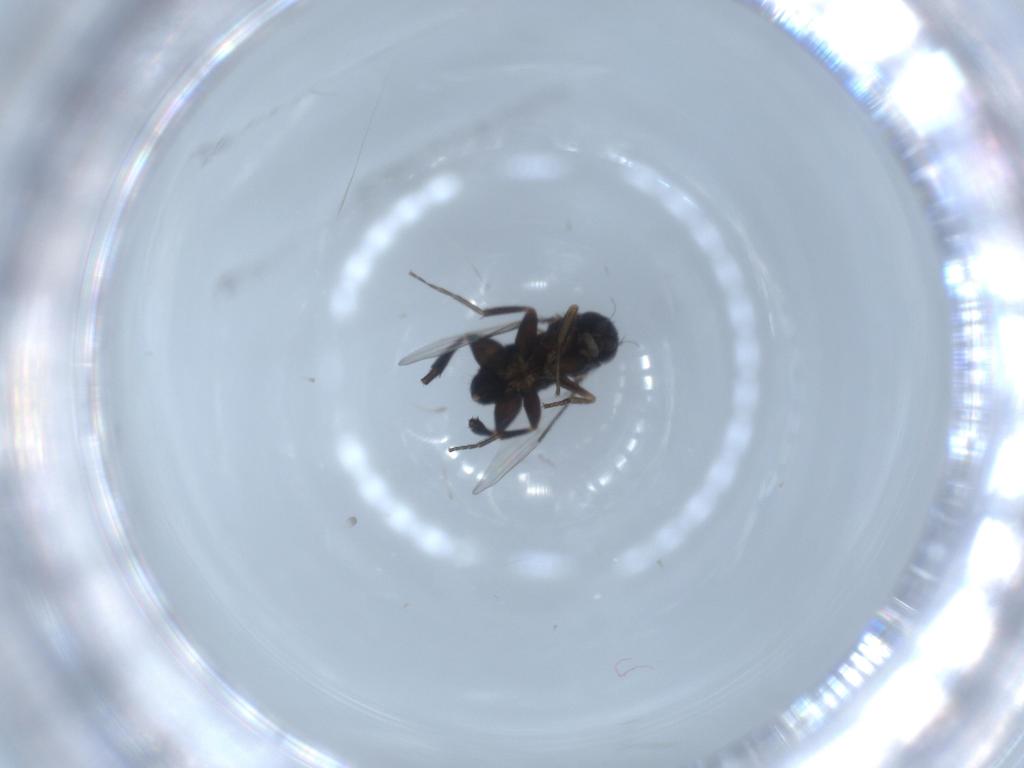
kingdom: Animalia
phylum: Arthropoda
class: Insecta
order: Diptera
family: Phoridae
